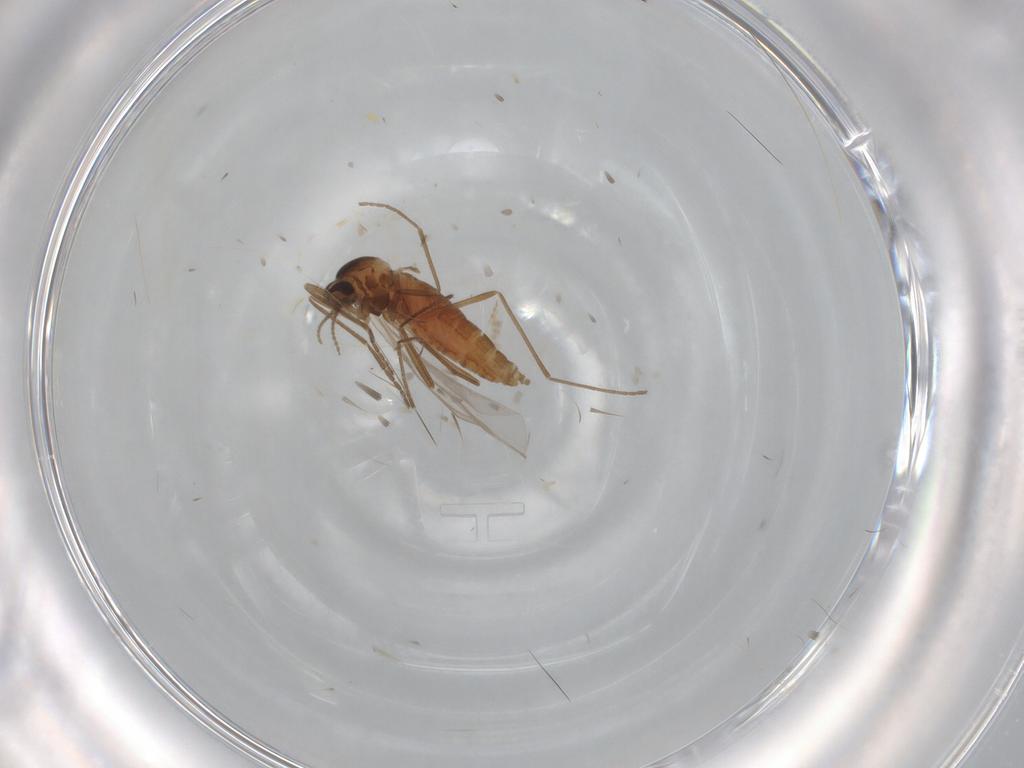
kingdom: Animalia
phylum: Arthropoda
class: Insecta
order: Diptera
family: Cecidomyiidae
